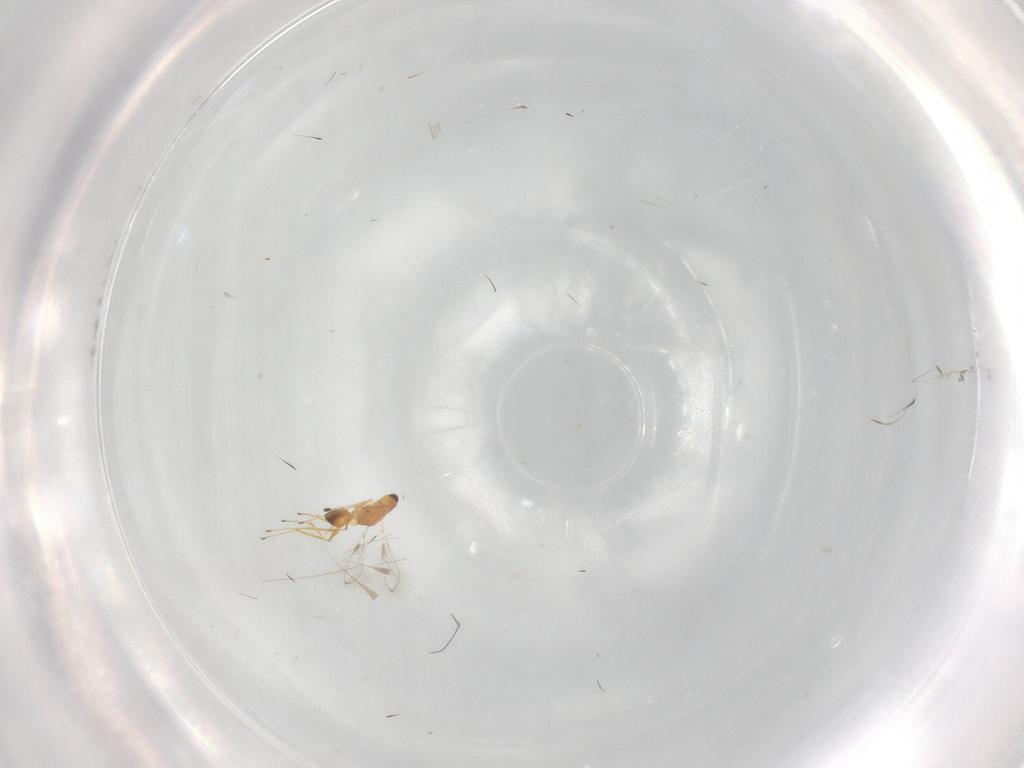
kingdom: Animalia
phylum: Arthropoda
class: Insecta
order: Hymenoptera
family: Mymaridae
